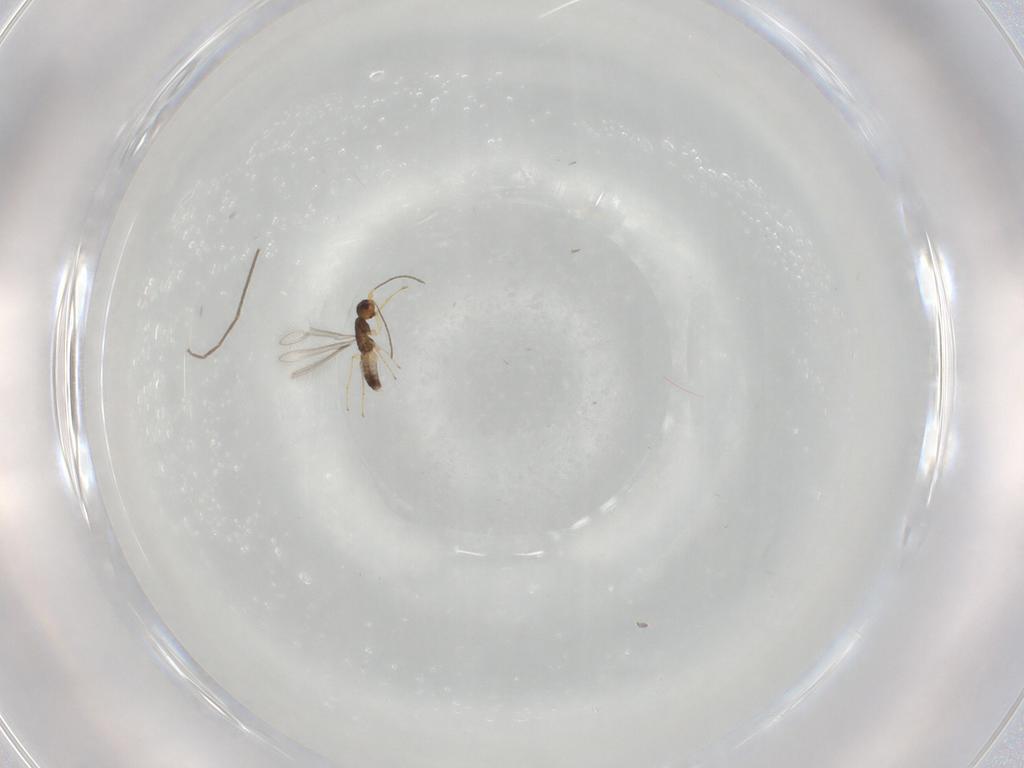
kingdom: Animalia
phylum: Arthropoda
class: Insecta
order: Hymenoptera
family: Mymaridae
